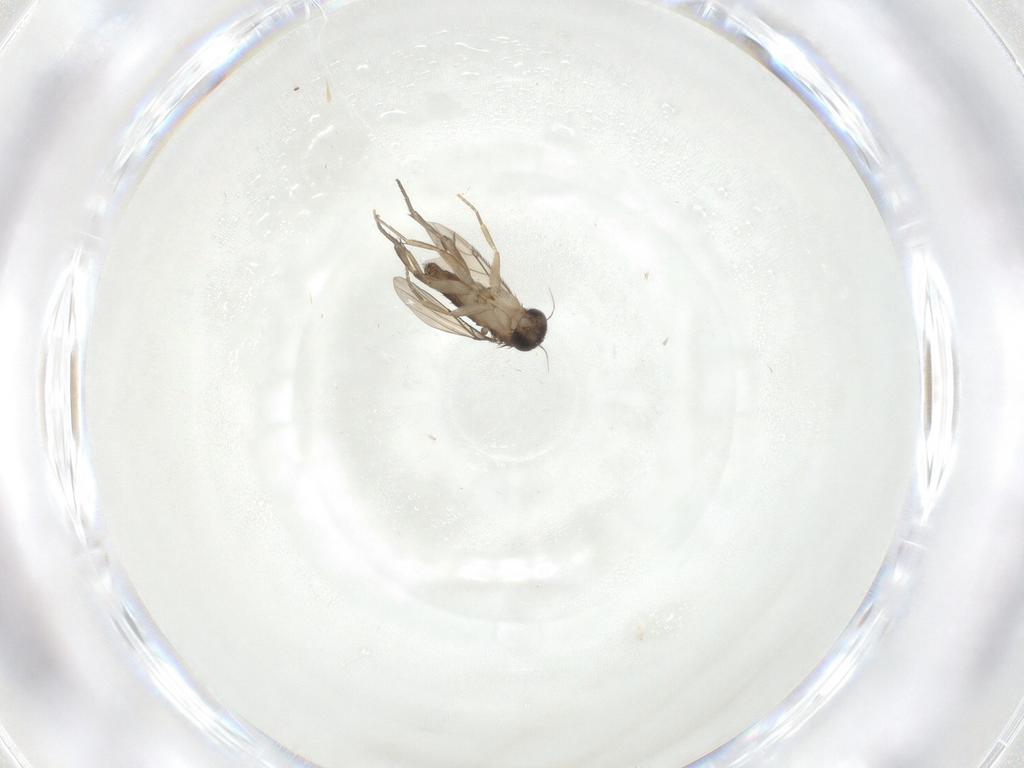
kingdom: Animalia
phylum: Arthropoda
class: Insecta
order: Diptera
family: Phoridae
